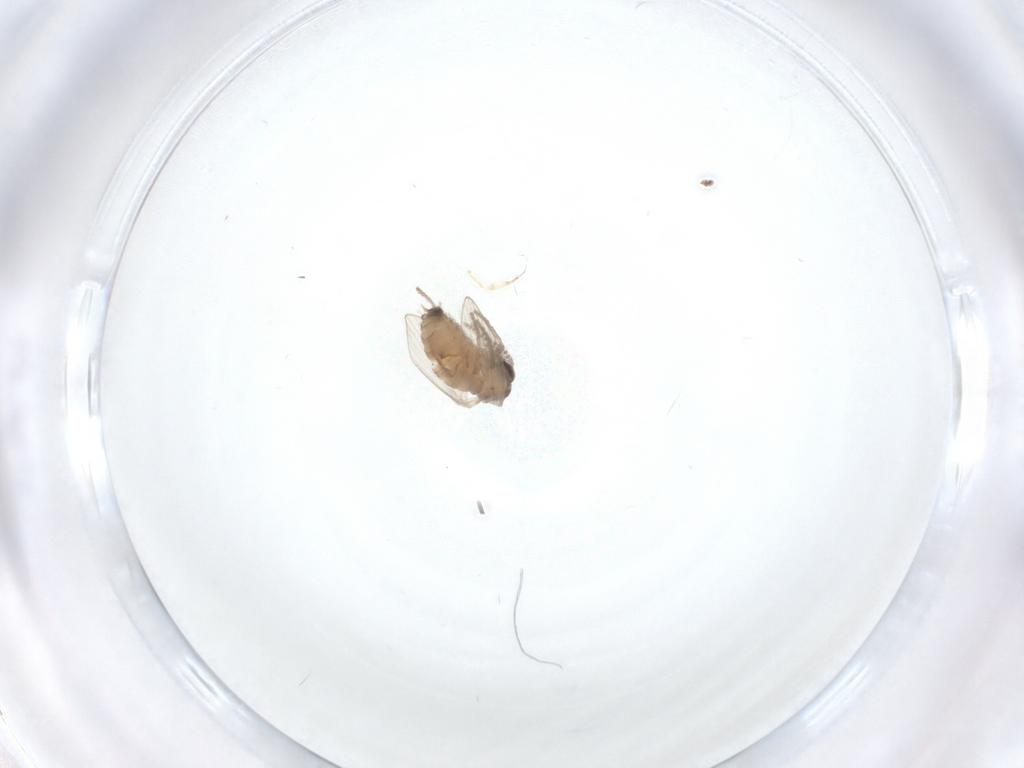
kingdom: Animalia
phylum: Arthropoda
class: Insecta
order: Diptera
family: Psychodidae
